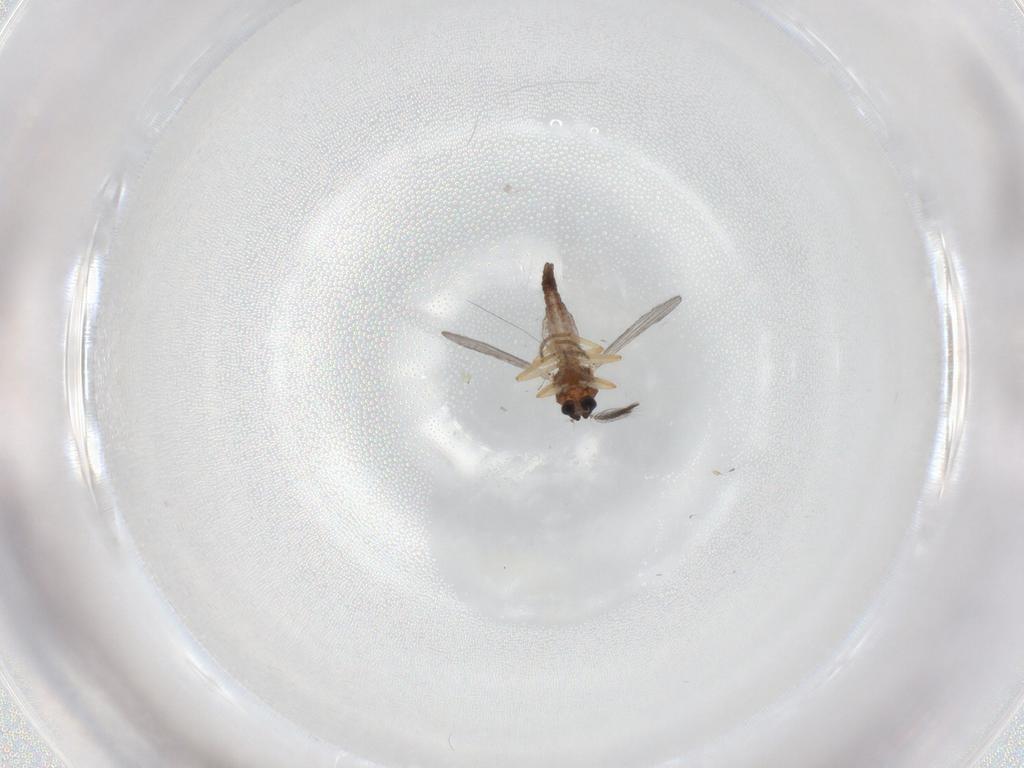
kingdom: Animalia
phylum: Arthropoda
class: Insecta
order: Diptera
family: Ceratopogonidae
